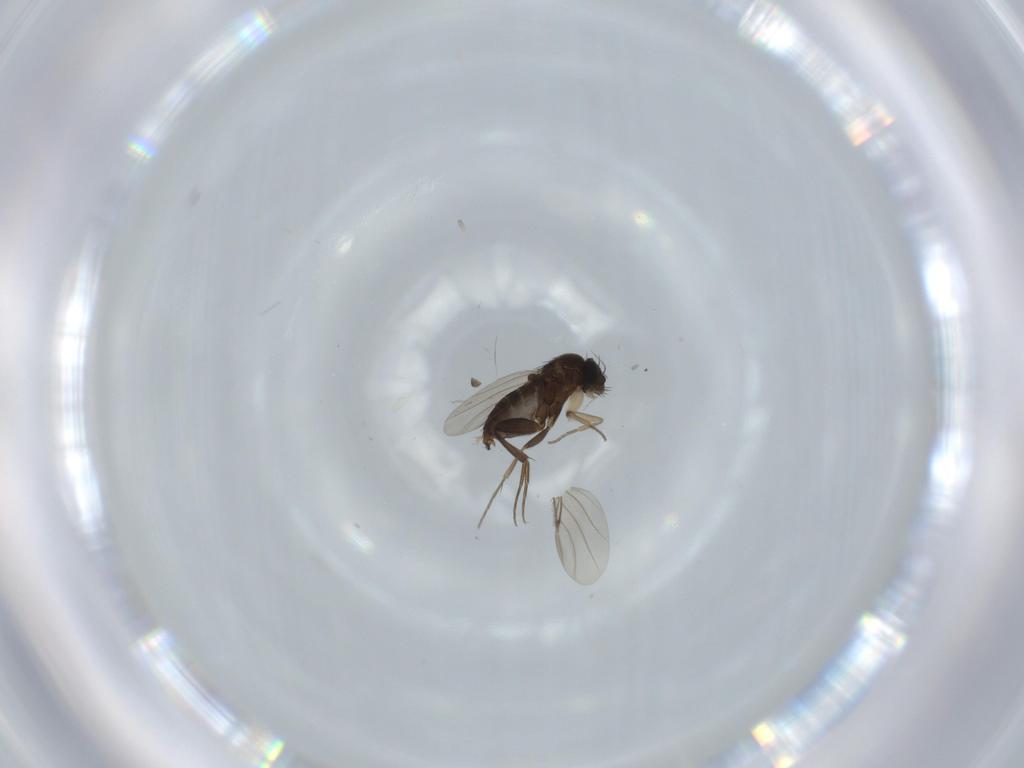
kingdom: Animalia
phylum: Arthropoda
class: Insecta
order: Diptera
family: Phoridae
